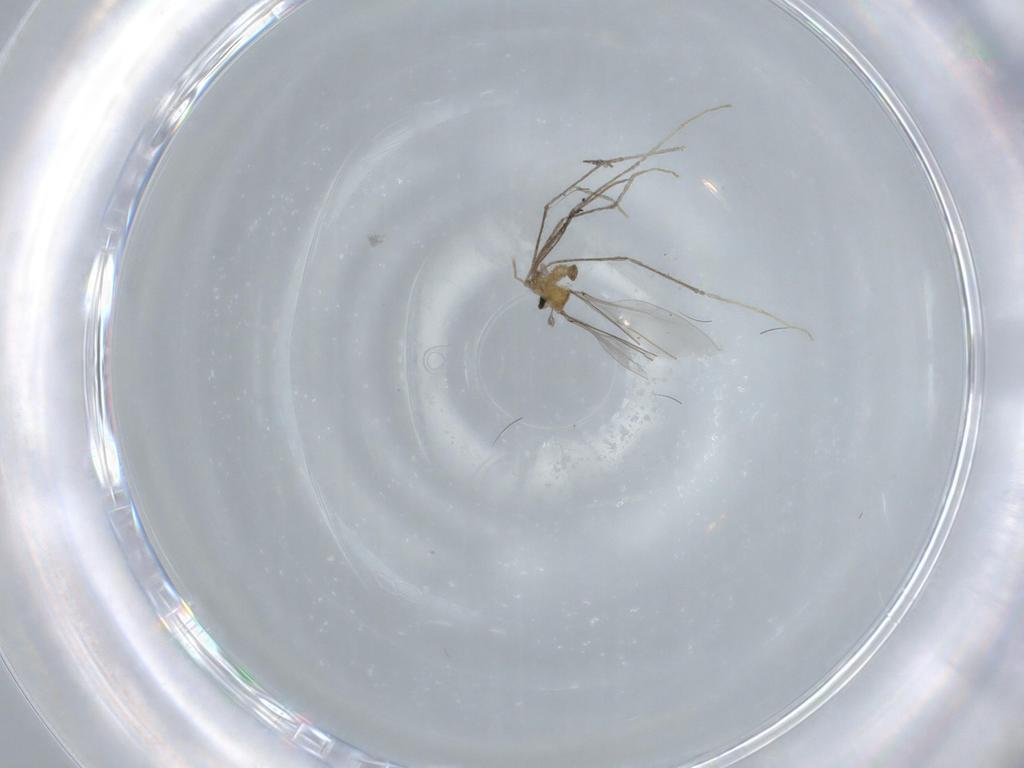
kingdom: Animalia
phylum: Arthropoda
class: Insecta
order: Diptera
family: Cecidomyiidae
